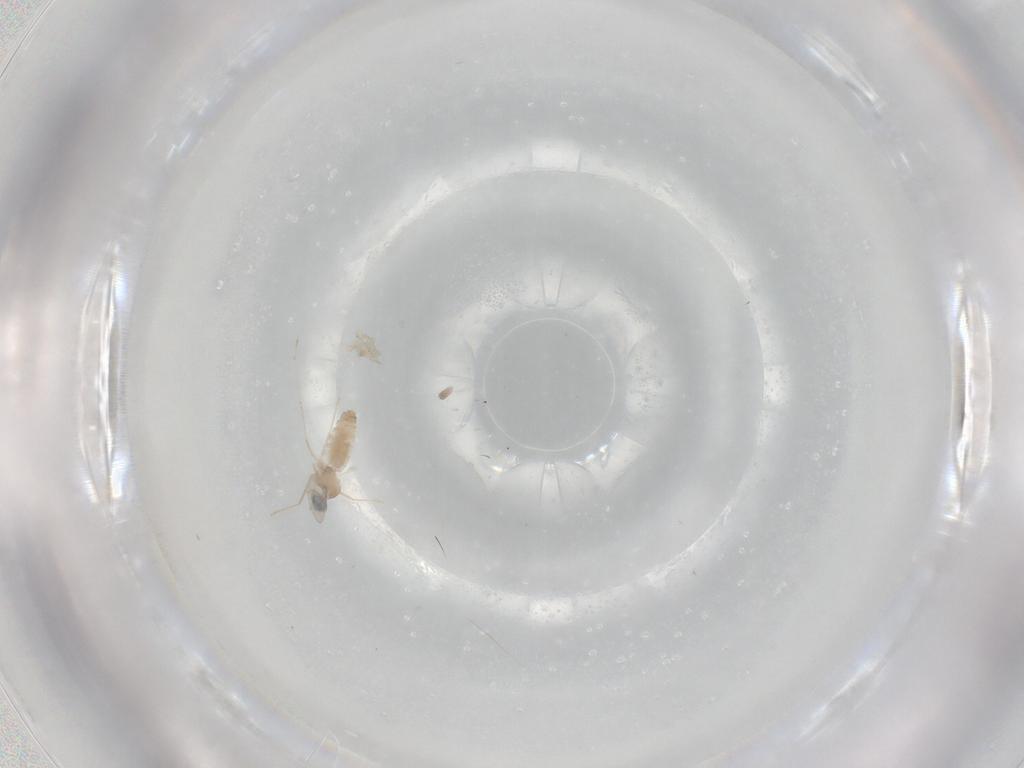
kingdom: Animalia
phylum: Arthropoda
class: Insecta
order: Diptera
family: Cecidomyiidae
